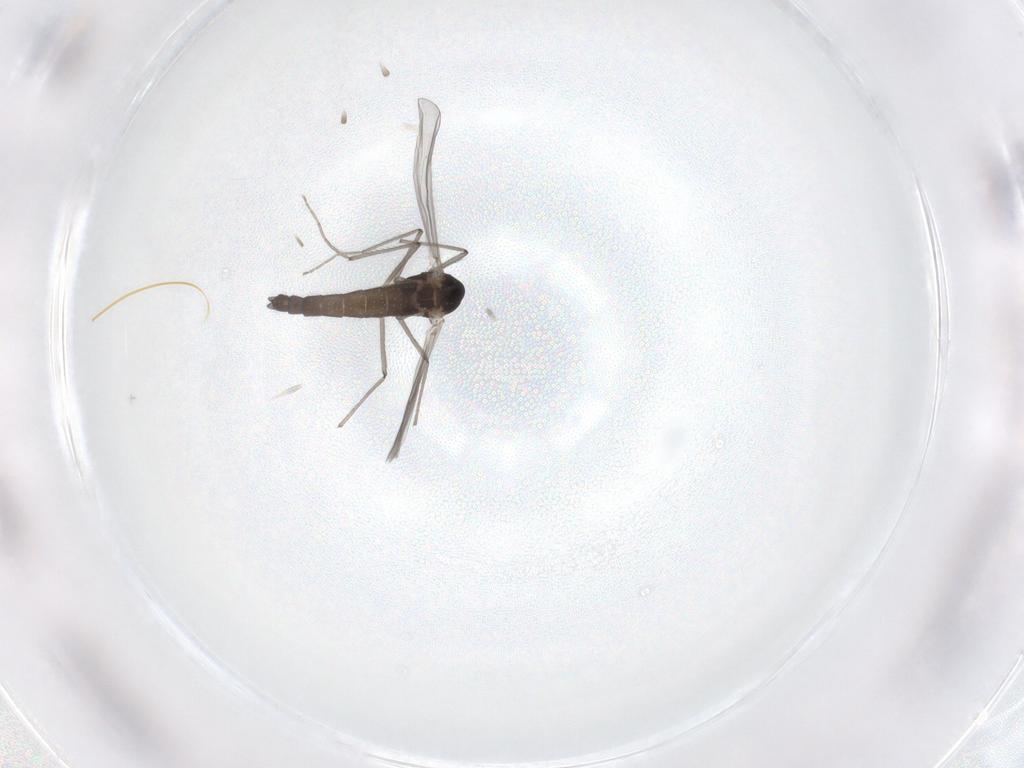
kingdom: Animalia
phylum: Arthropoda
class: Insecta
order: Diptera
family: Chironomidae
